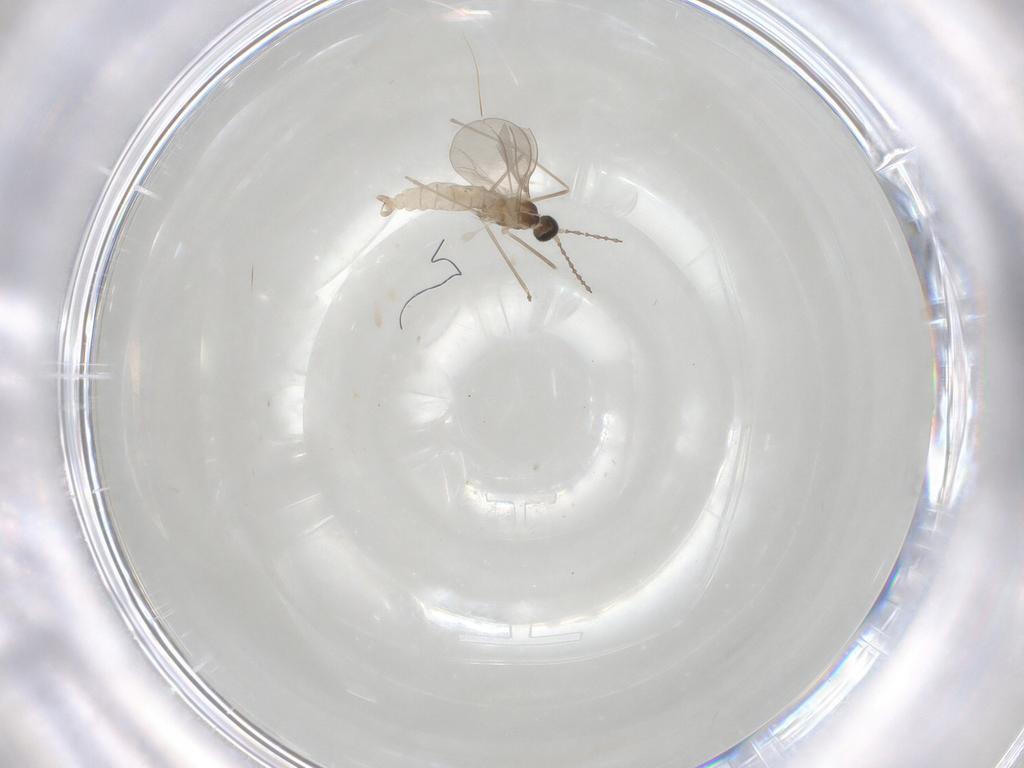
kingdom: Animalia
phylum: Arthropoda
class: Insecta
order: Diptera
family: Cecidomyiidae
